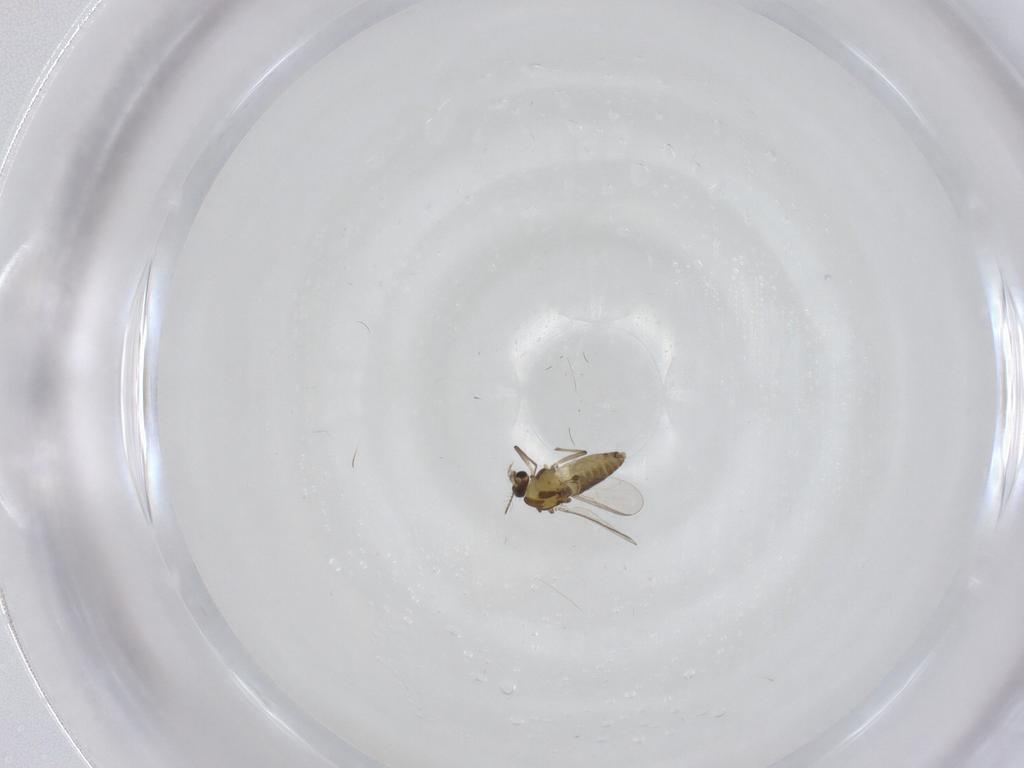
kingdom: Animalia
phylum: Arthropoda
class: Insecta
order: Diptera
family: Chironomidae
